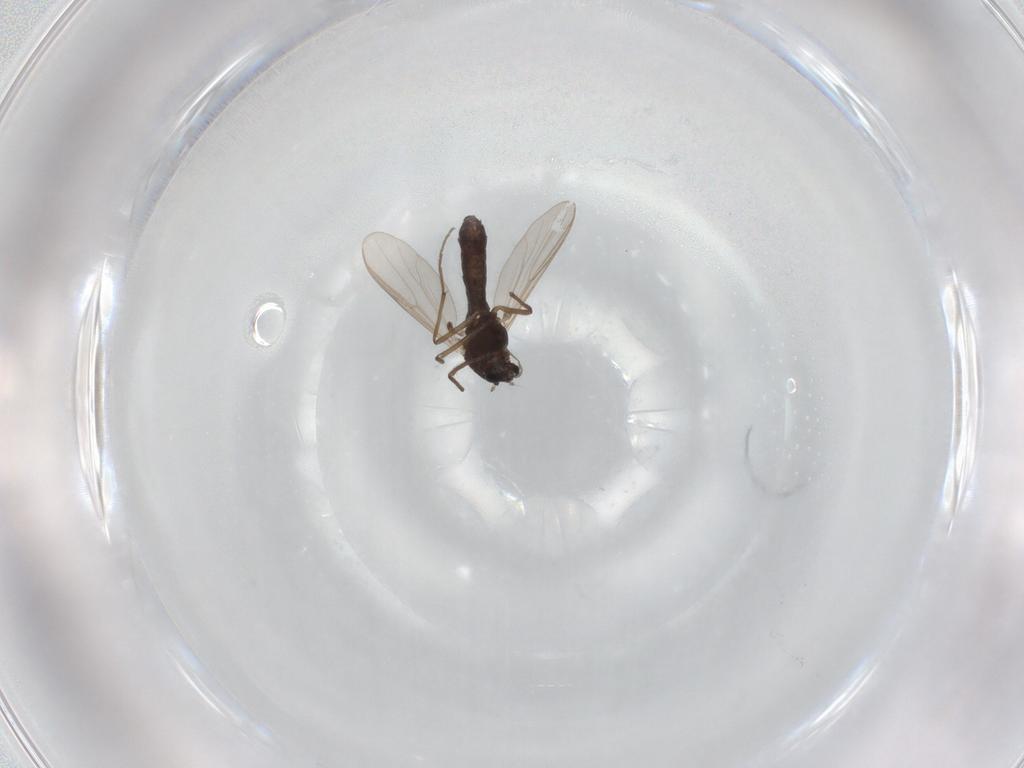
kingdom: Animalia
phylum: Arthropoda
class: Insecta
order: Diptera
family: Chironomidae
